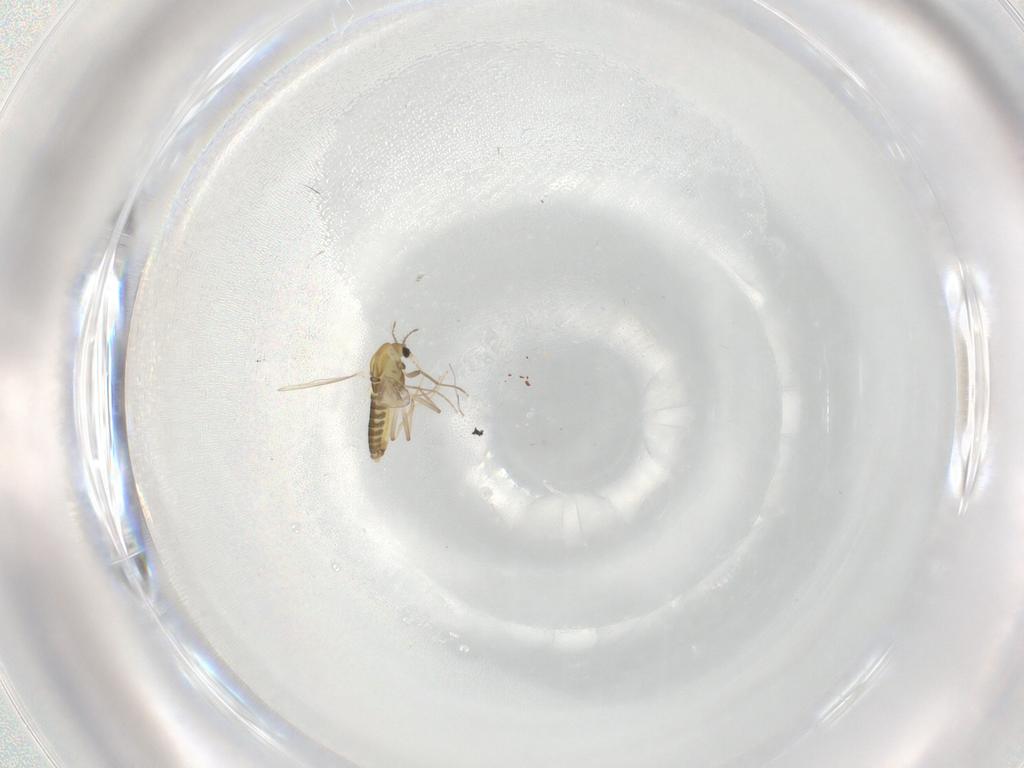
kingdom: Animalia
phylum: Arthropoda
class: Insecta
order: Diptera
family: Chironomidae
